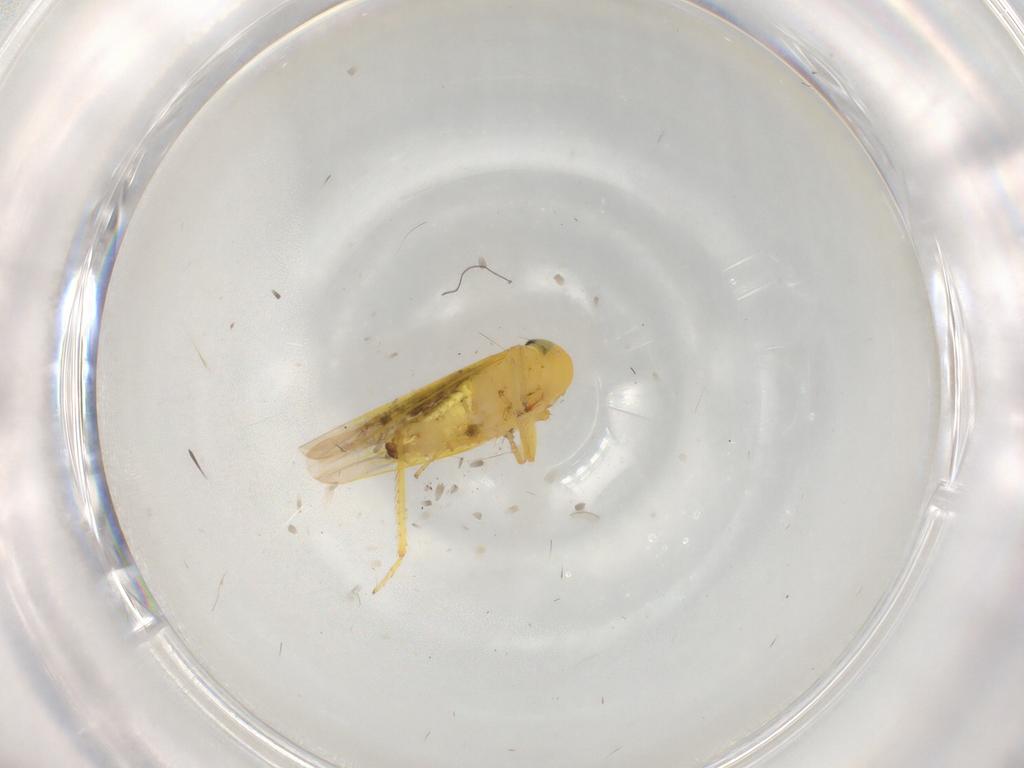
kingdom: Animalia
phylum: Arthropoda
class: Insecta
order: Hemiptera
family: Cicadellidae
